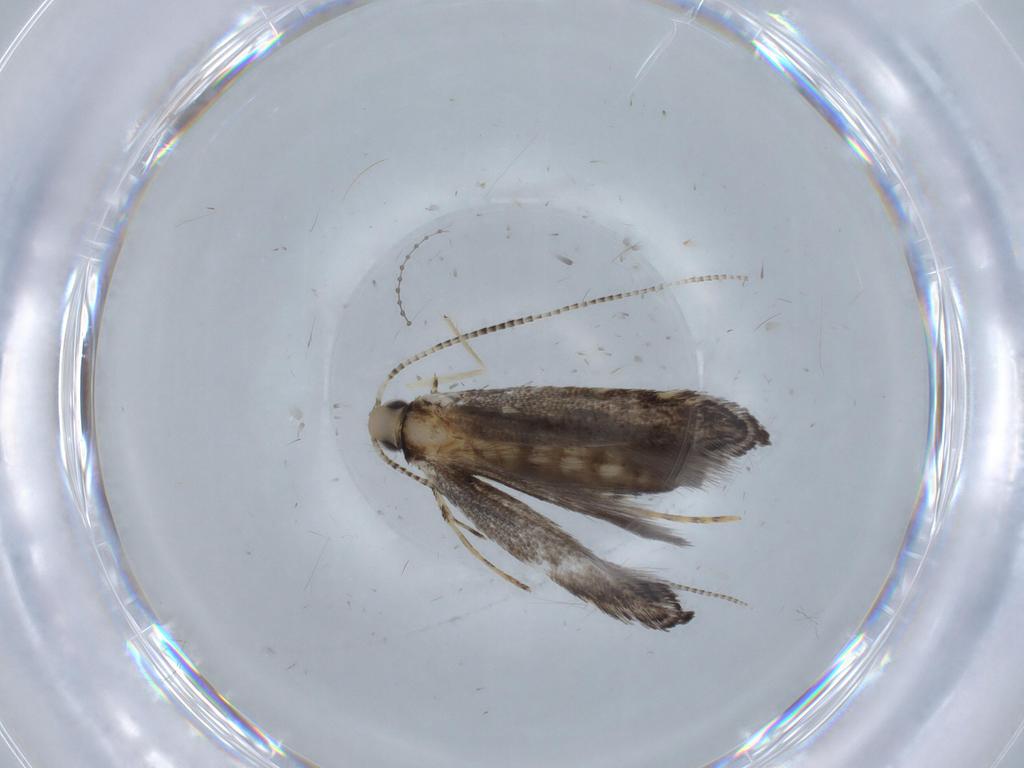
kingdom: Animalia
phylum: Arthropoda
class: Insecta
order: Lepidoptera
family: Gracillariidae
